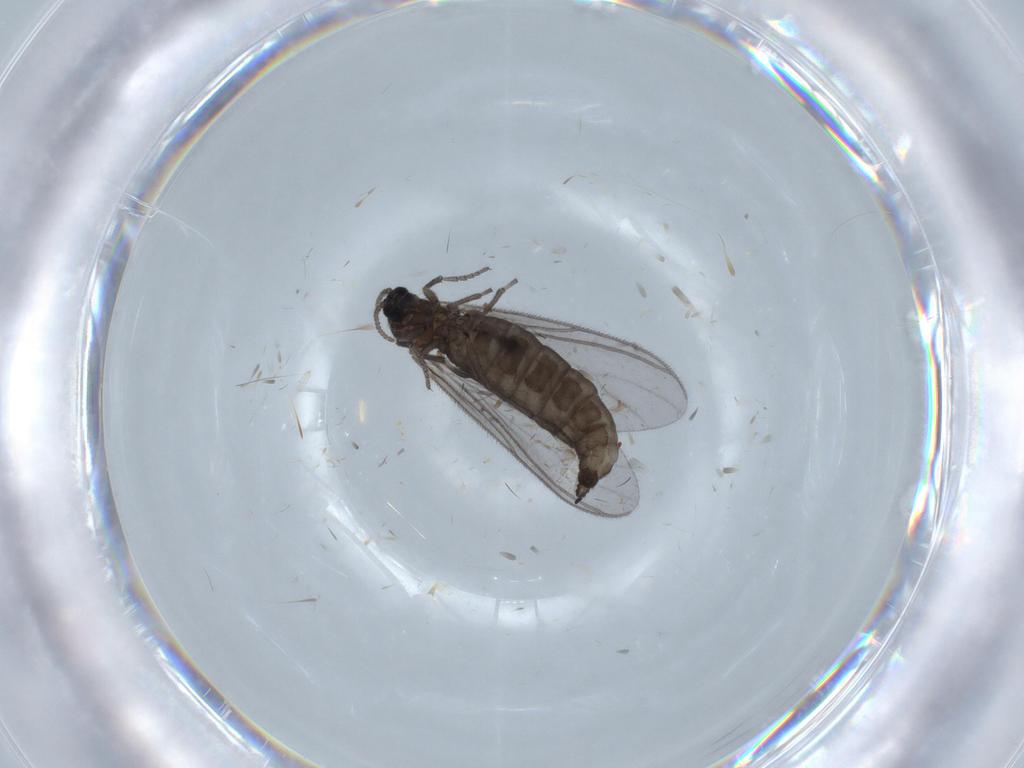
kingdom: Animalia
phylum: Arthropoda
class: Insecta
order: Diptera
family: Sciaridae
